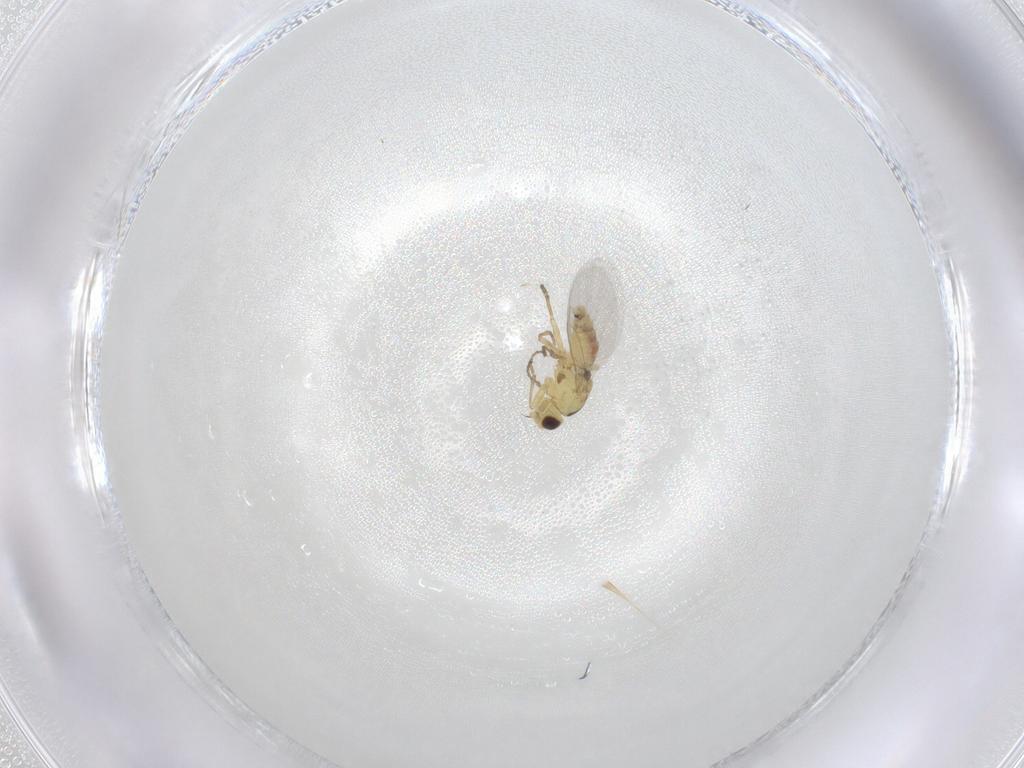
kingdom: Animalia
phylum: Arthropoda
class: Insecta
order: Diptera
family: Agromyzidae
